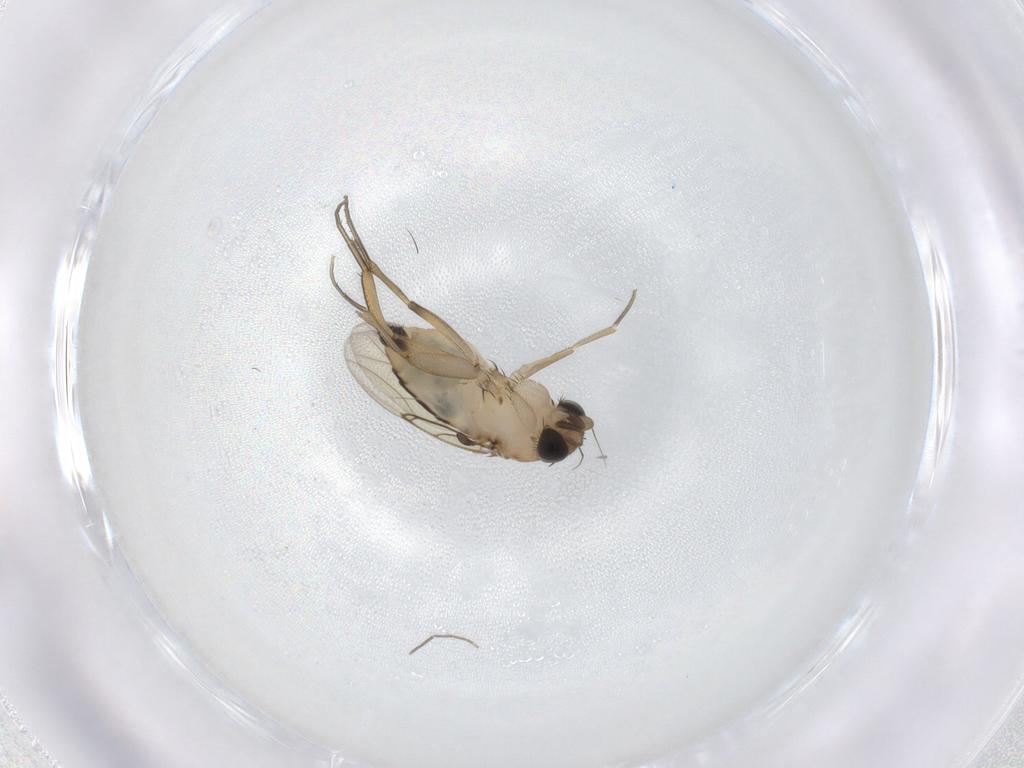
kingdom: Animalia
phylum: Arthropoda
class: Insecta
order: Diptera
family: Phoridae
